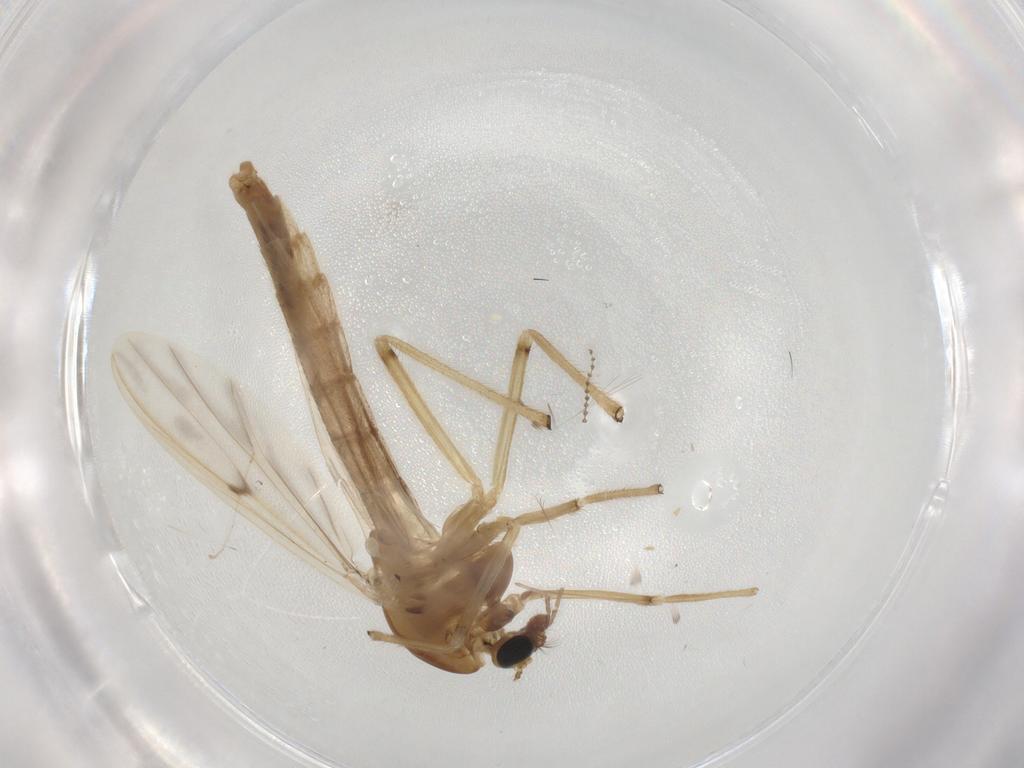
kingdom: Animalia
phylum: Arthropoda
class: Insecta
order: Diptera
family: Chironomidae
